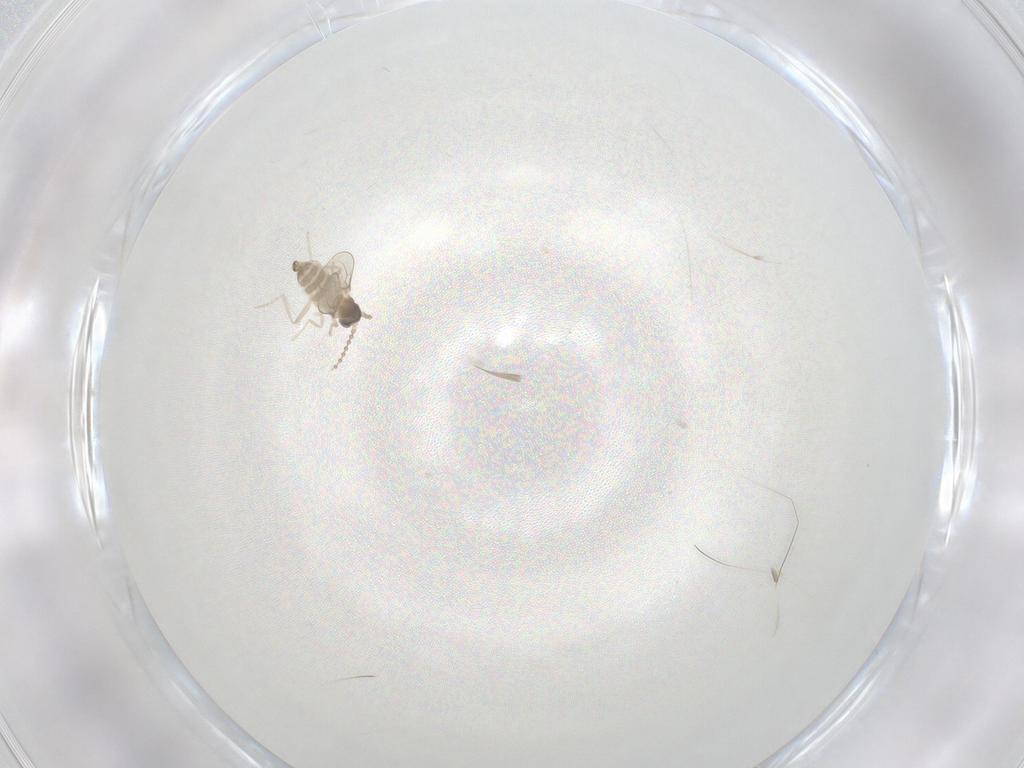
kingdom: Animalia
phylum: Arthropoda
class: Insecta
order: Diptera
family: Cecidomyiidae
